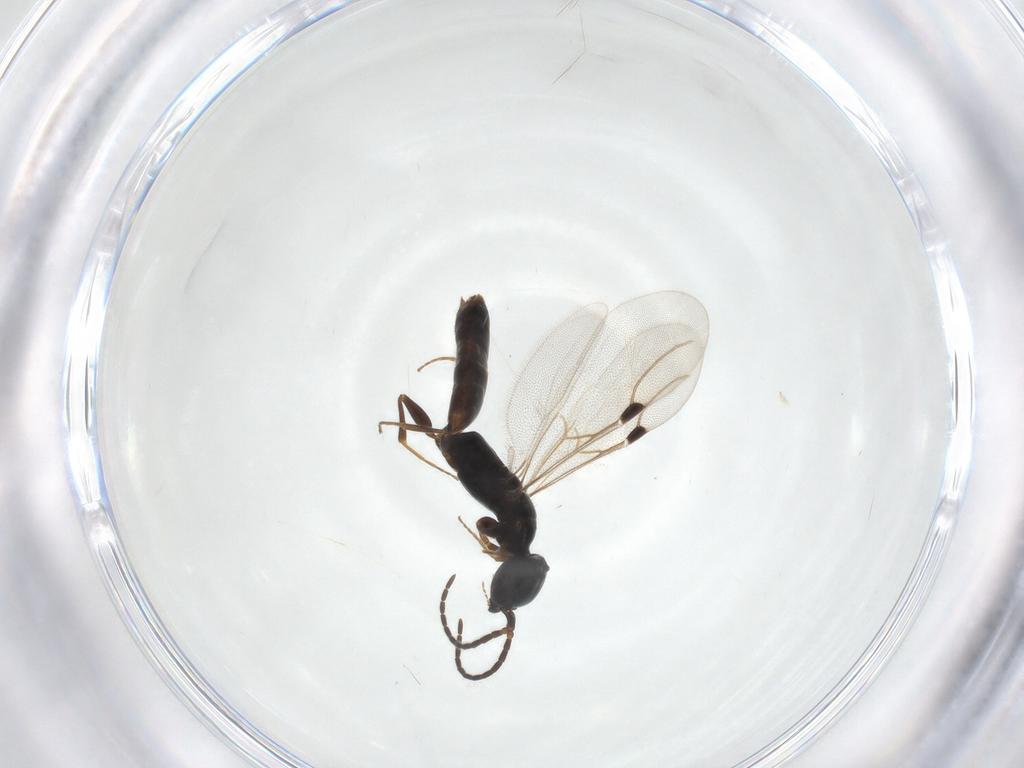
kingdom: Animalia
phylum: Arthropoda
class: Insecta
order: Hymenoptera
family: Bethylidae
